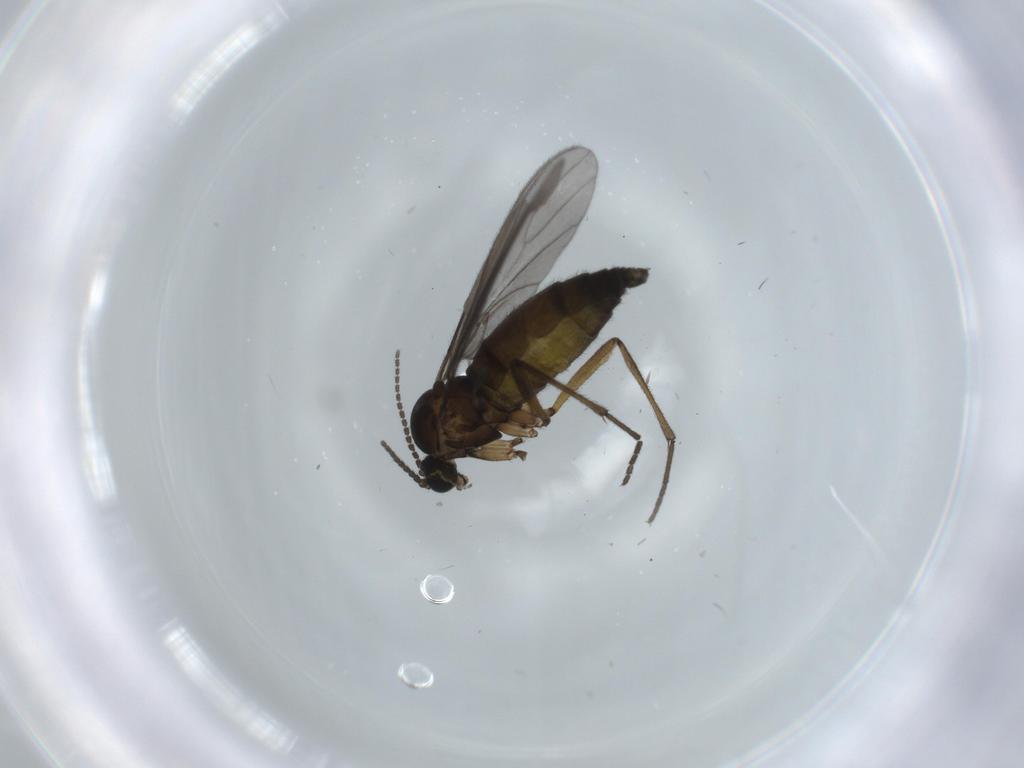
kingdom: Animalia
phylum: Arthropoda
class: Insecta
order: Diptera
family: Sciaridae
